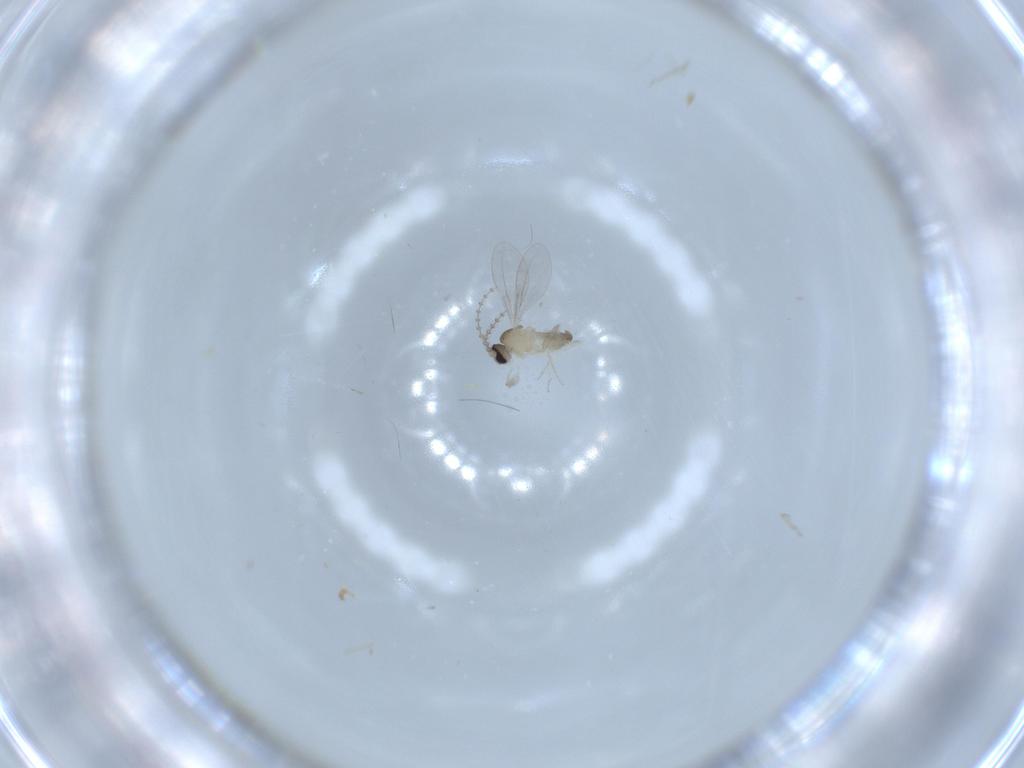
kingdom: Animalia
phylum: Arthropoda
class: Insecta
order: Diptera
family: Cecidomyiidae
